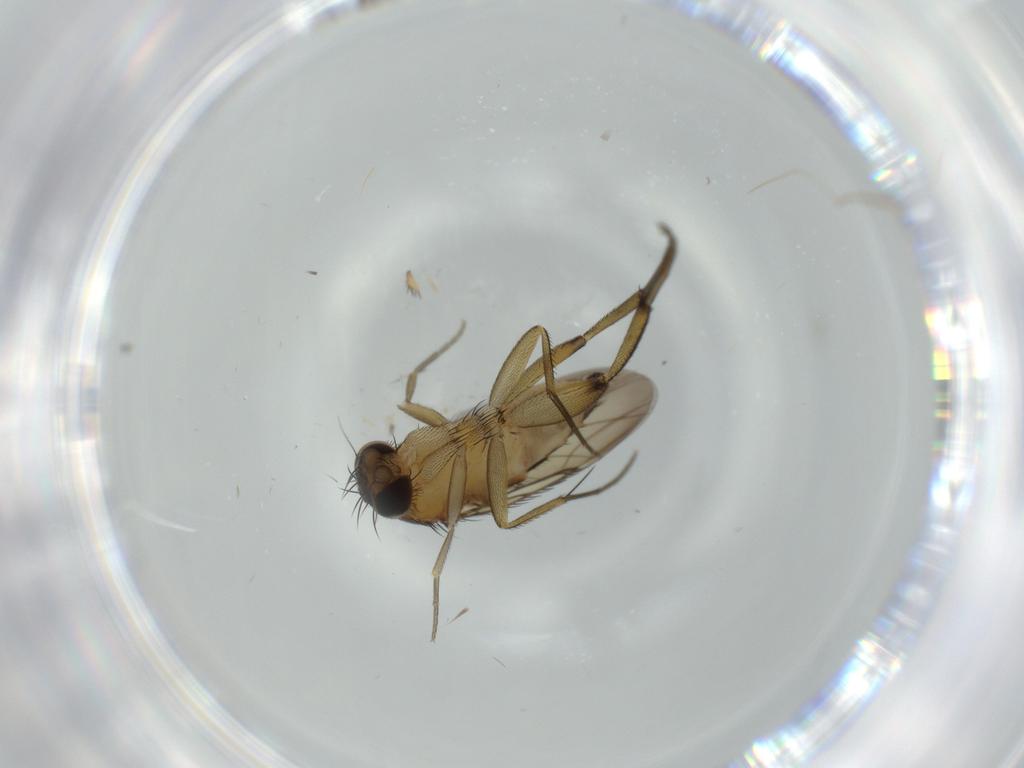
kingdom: Animalia
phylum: Arthropoda
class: Insecta
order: Diptera
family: Phoridae
